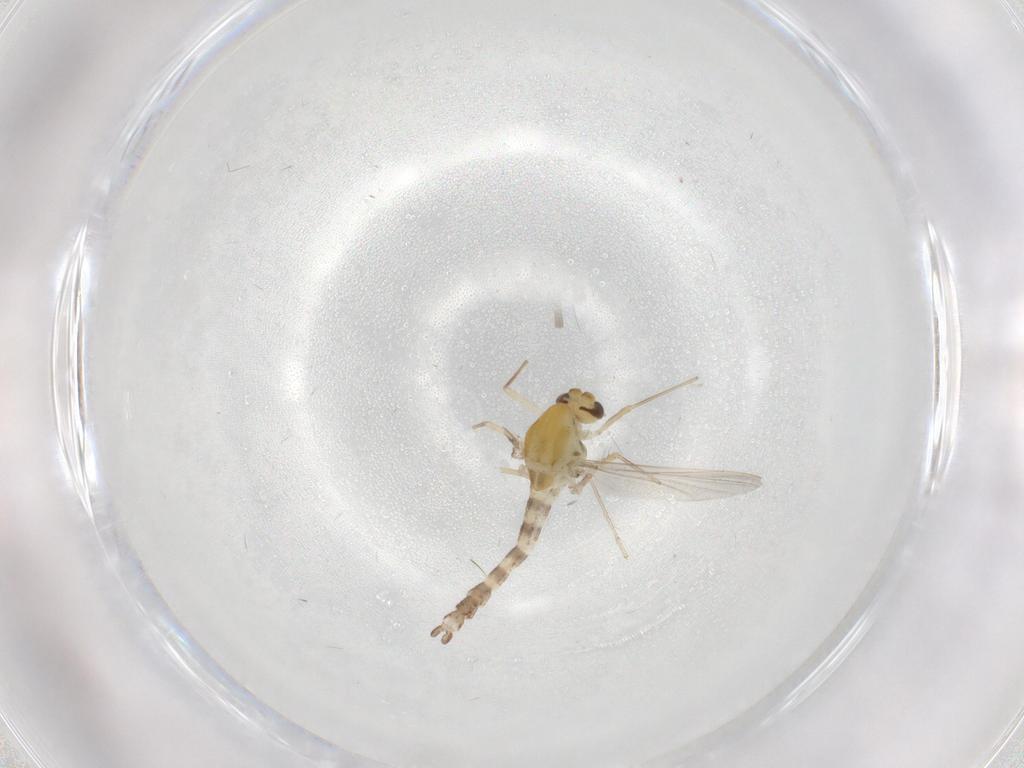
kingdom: Animalia
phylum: Arthropoda
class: Insecta
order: Diptera
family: Chironomidae
